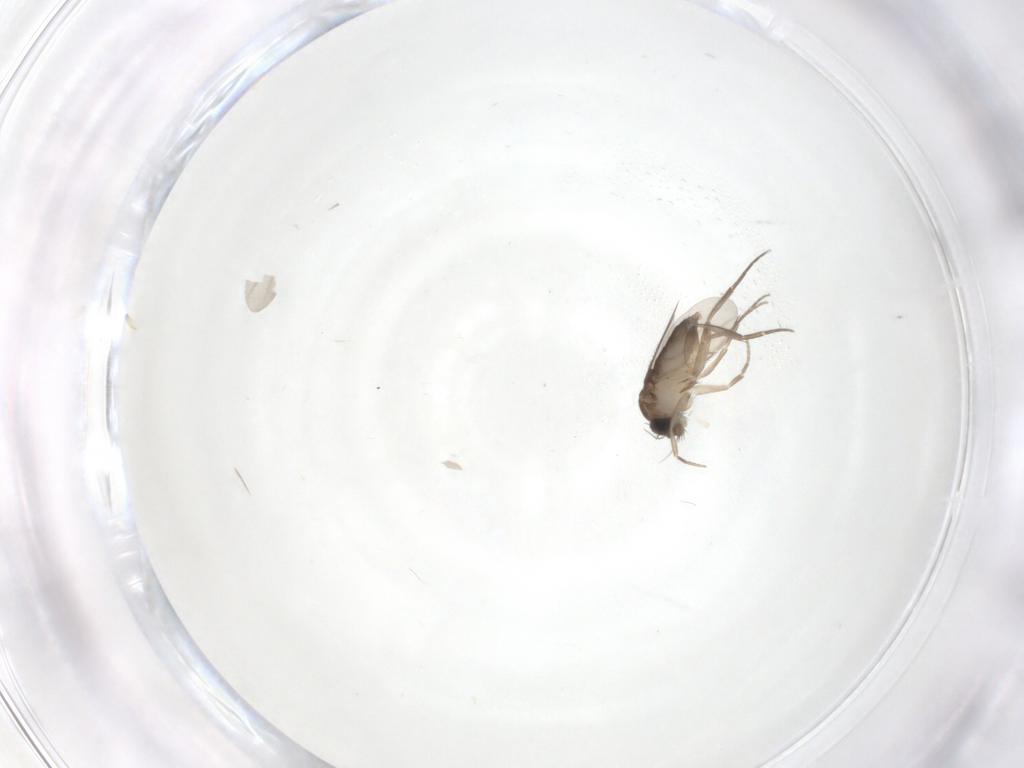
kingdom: Animalia
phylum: Arthropoda
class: Insecta
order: Diptera
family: Phoridae
